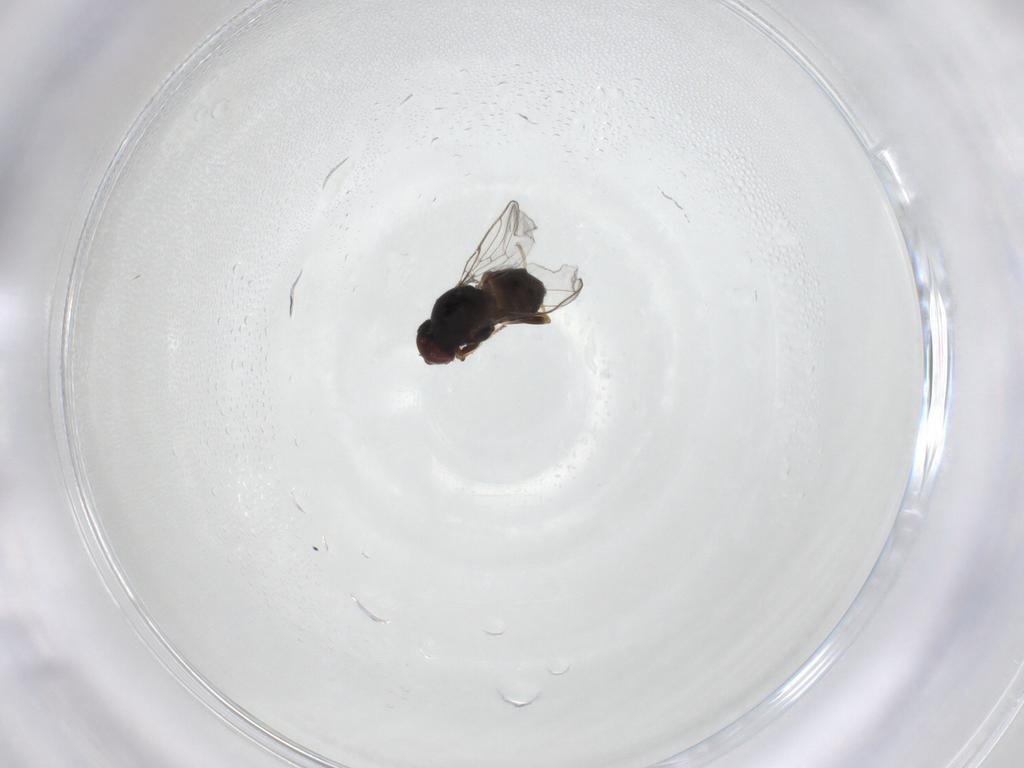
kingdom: Animalia
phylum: Arthropoda
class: Insecta
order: Diptera
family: Chloropidae
